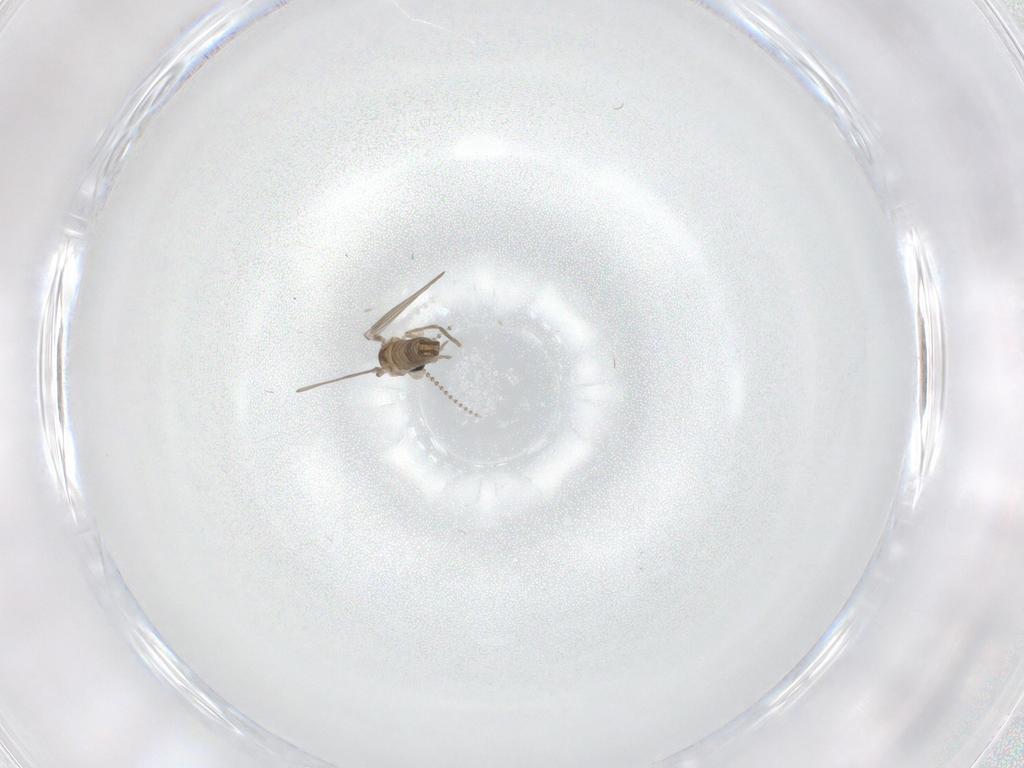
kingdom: Animalia
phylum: Arthropoda
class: Insecta
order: Diptera
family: Psychodidae
